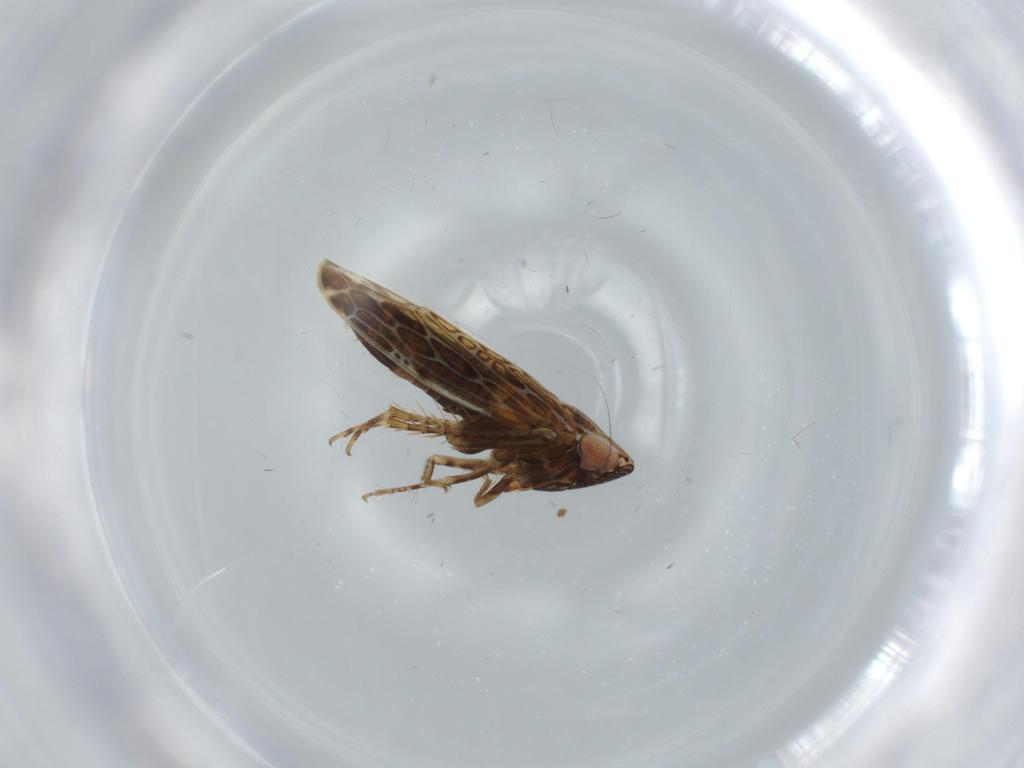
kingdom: Animalia
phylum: Arthropoda
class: Insecta
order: Hemiptera
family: Cicadellidae
